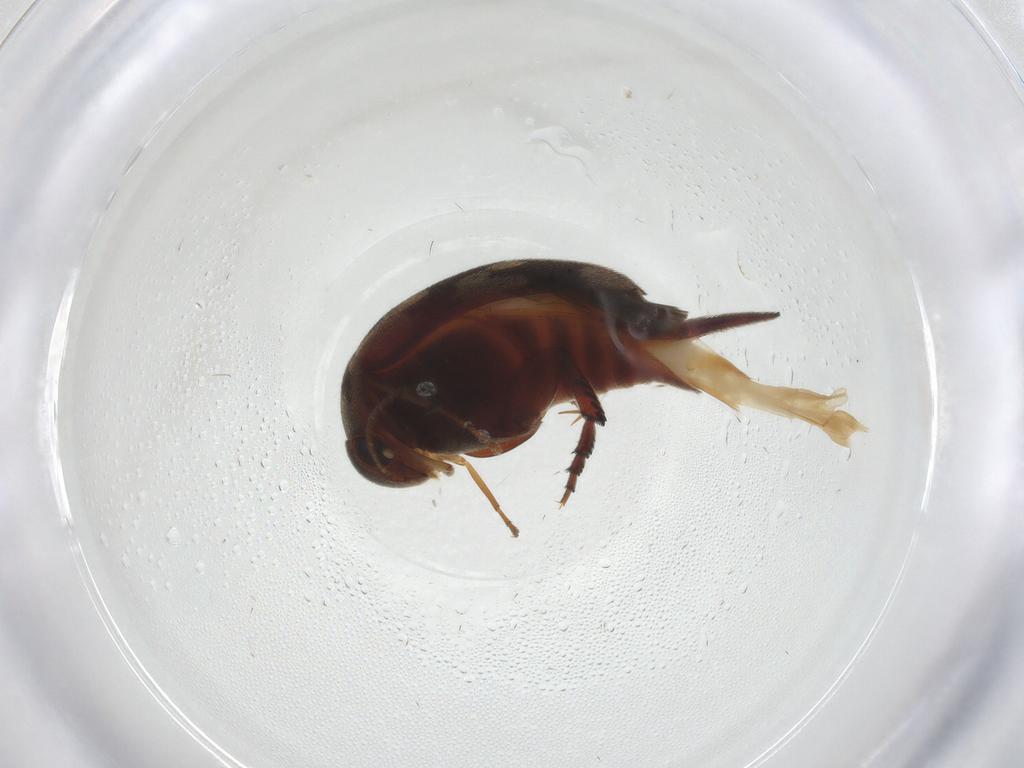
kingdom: Animalia
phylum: Arthropoda
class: Insecta
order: Coleoptera
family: Mordellidae
